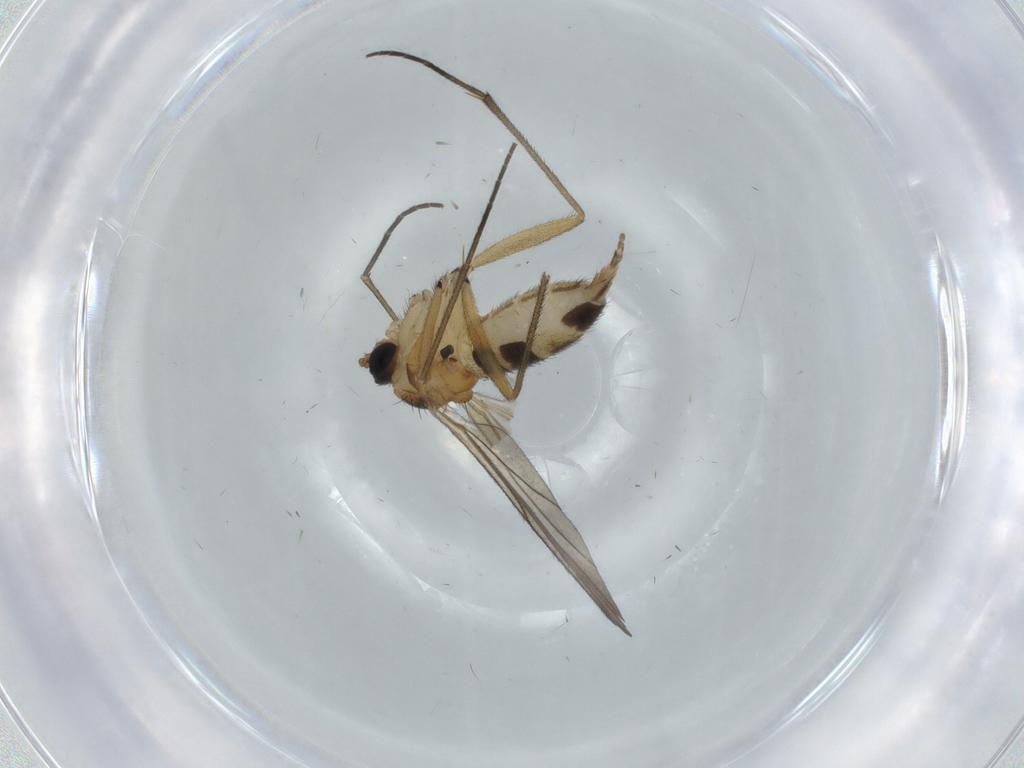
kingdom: Animalia
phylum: Arthropoda
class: Insecta
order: Diptera
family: Dolichopodidae
